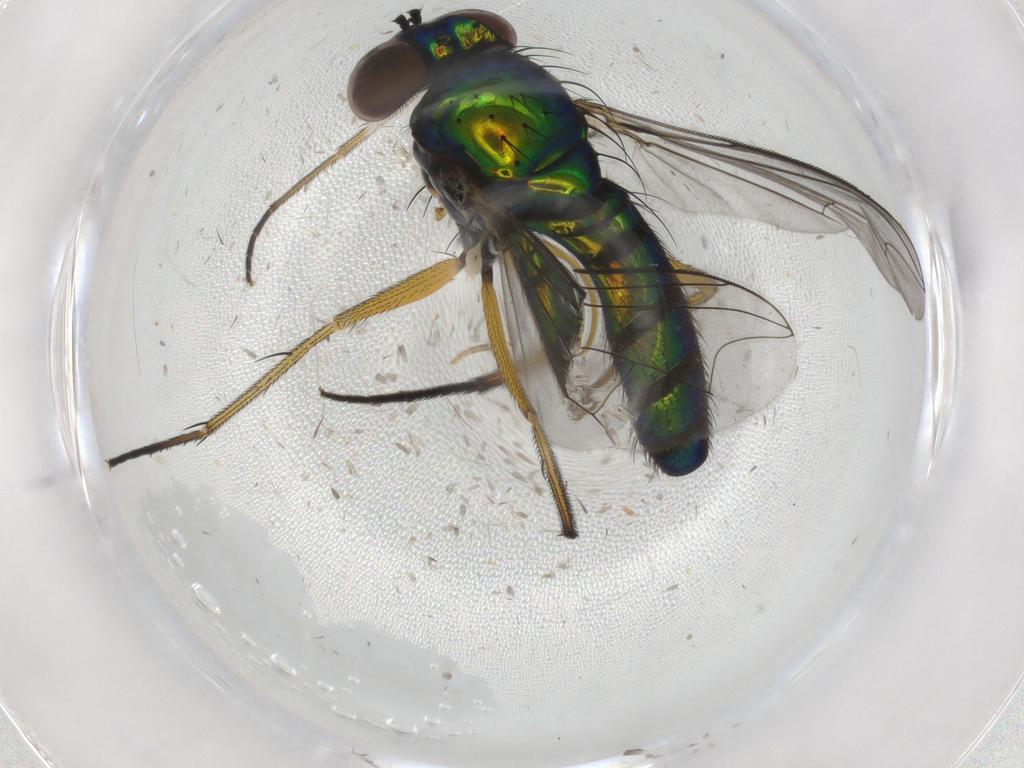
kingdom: Animalia
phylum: Arthropoda
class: Insecta
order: Diptera
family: Dolichopodidae
